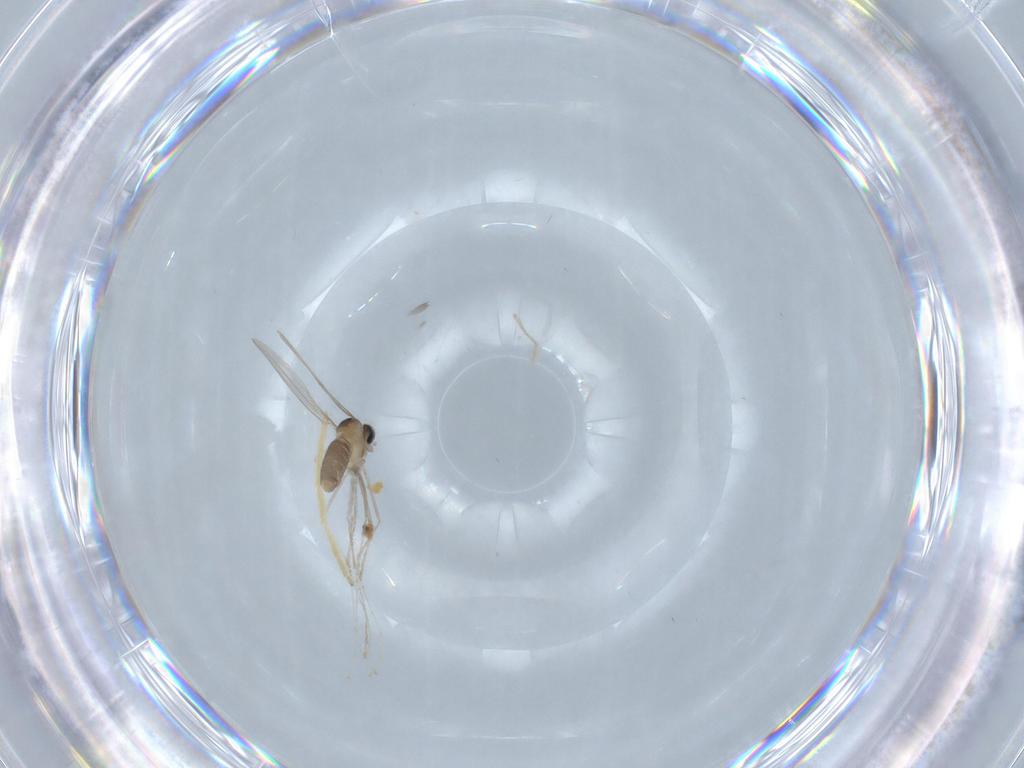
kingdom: Animalia
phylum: Arthropoda
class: Insecta
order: Diptera
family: Cecidomyiidae
